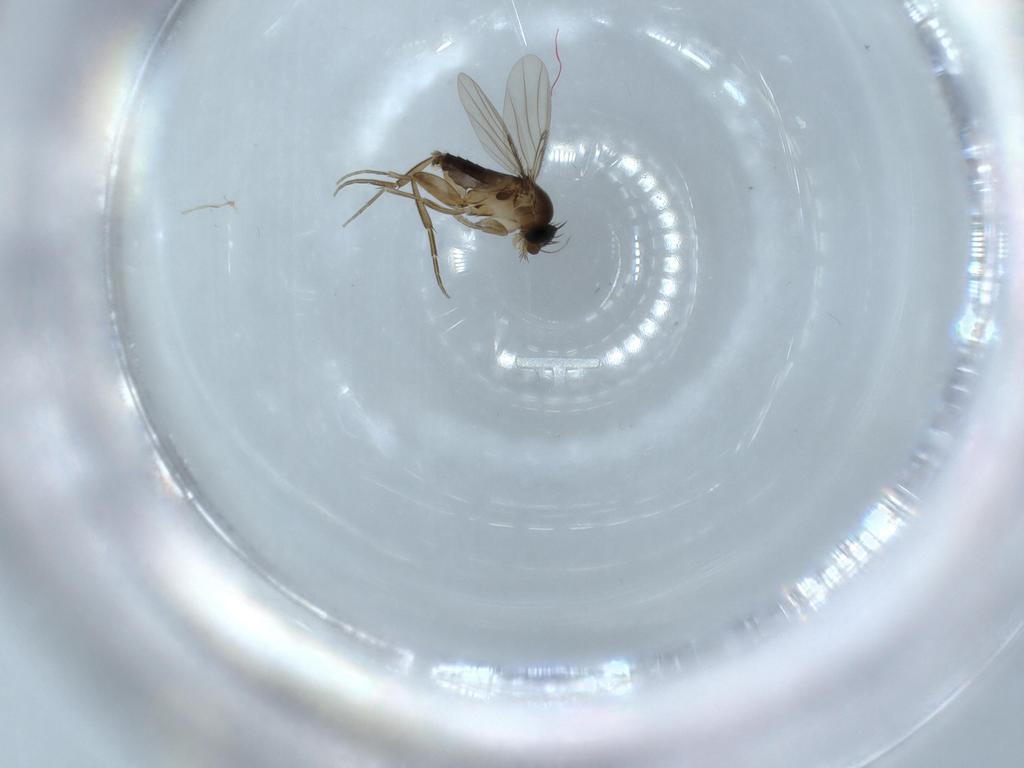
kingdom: Animalia
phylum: Arthropoda
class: Insecta
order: Diptera
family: Phoridae
